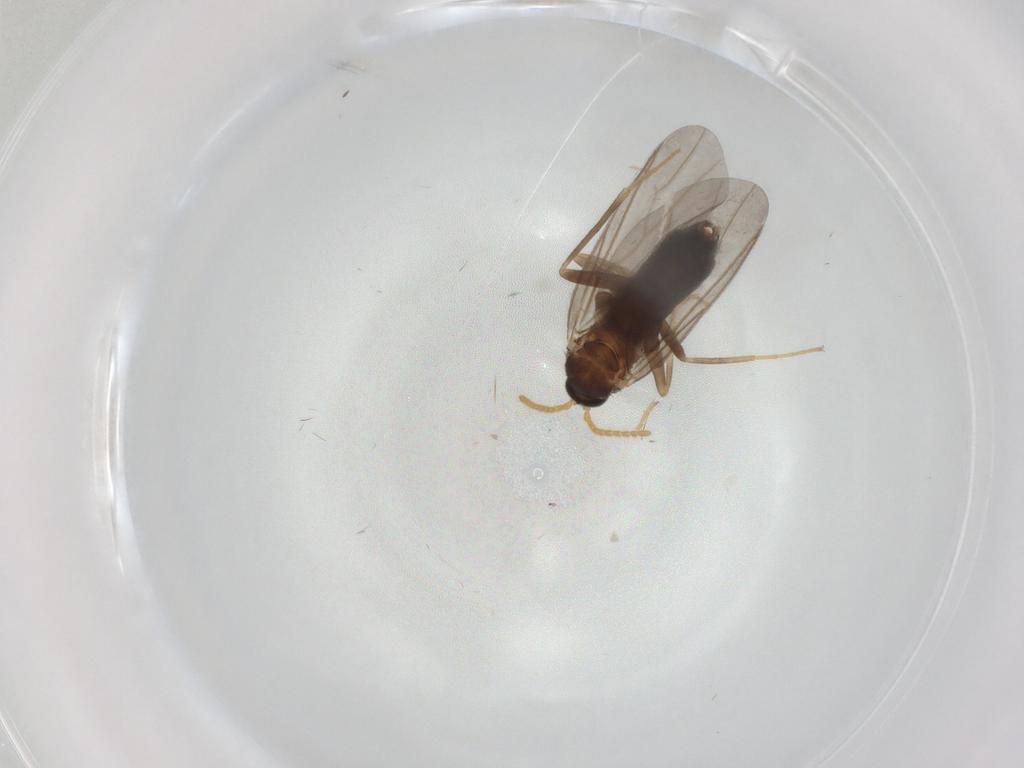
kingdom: Animalia
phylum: Arthropoda
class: Insecta
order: Diptera
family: Scatopsidae
